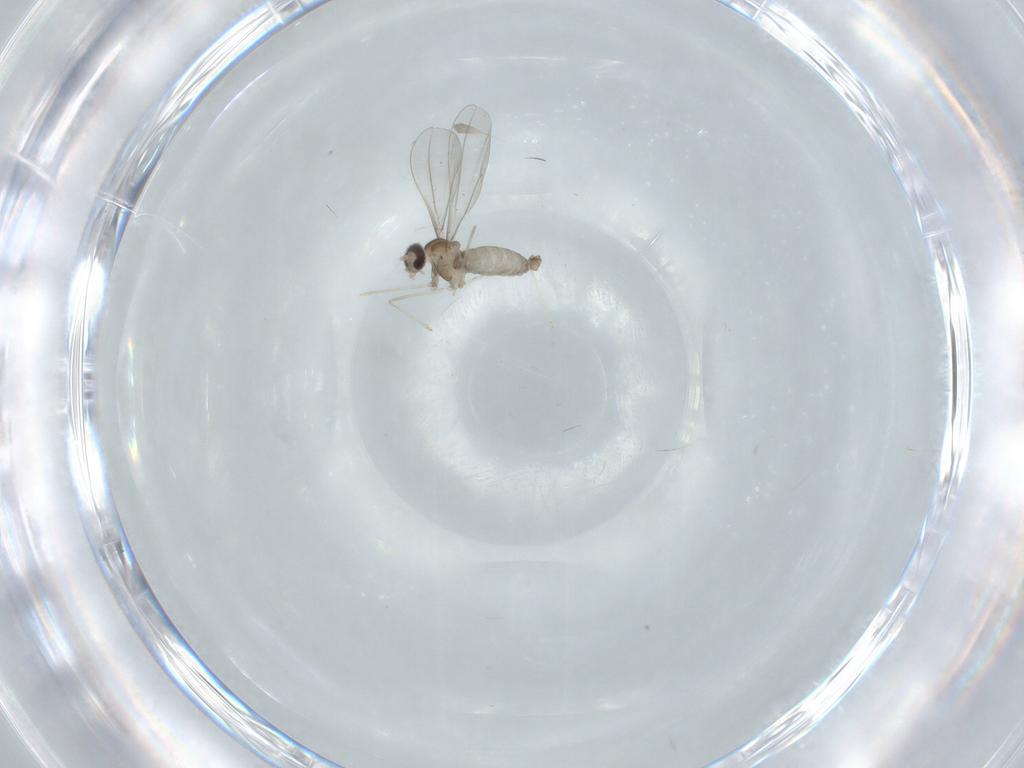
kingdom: Animalia
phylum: Arthropoda
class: Insecta
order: Diptera
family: Cecidomyiidae
